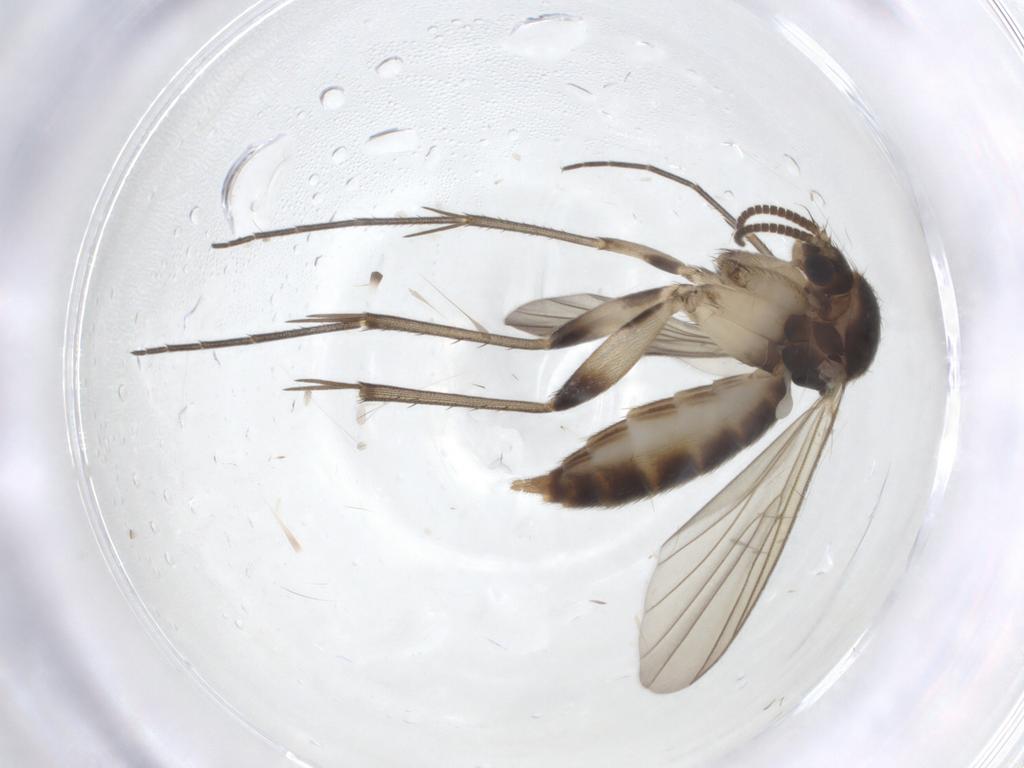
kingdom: Animalia
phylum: Arthropoda
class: Insecta
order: Diptera
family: Mycetophilidae
